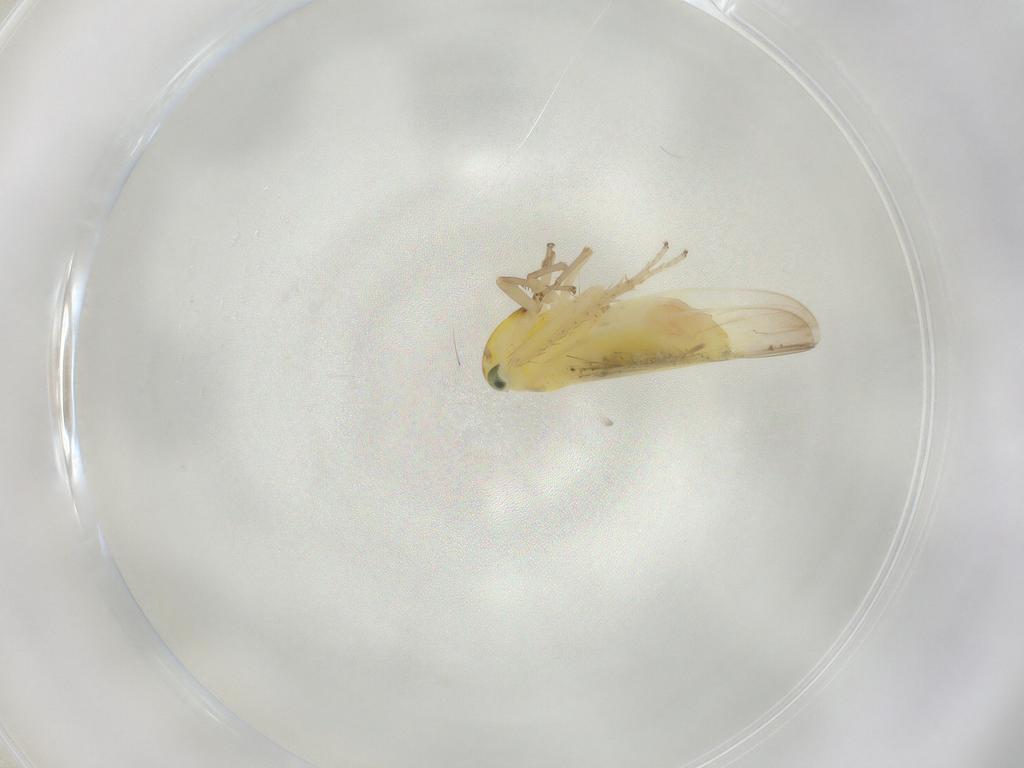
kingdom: Animalia
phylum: Arthropoda
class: Insecta
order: Hemiptera
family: Cicadellidae
